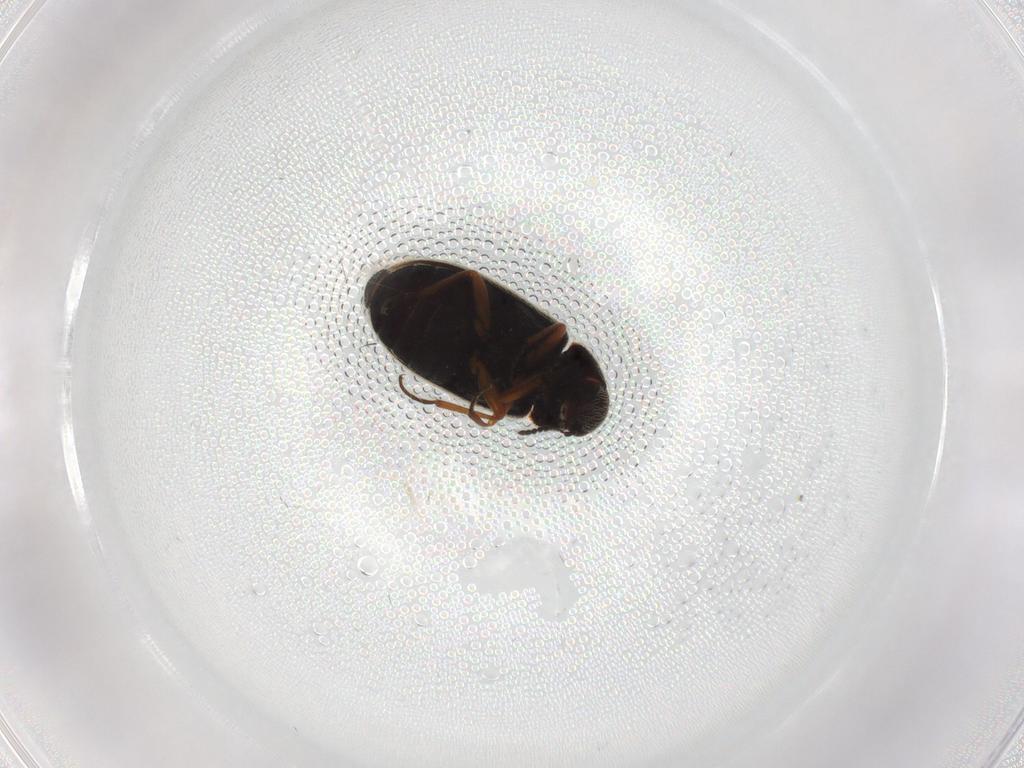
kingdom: Animalia
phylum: Arthropoda
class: Insecta
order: Coleoptera
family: Rhadalidae
